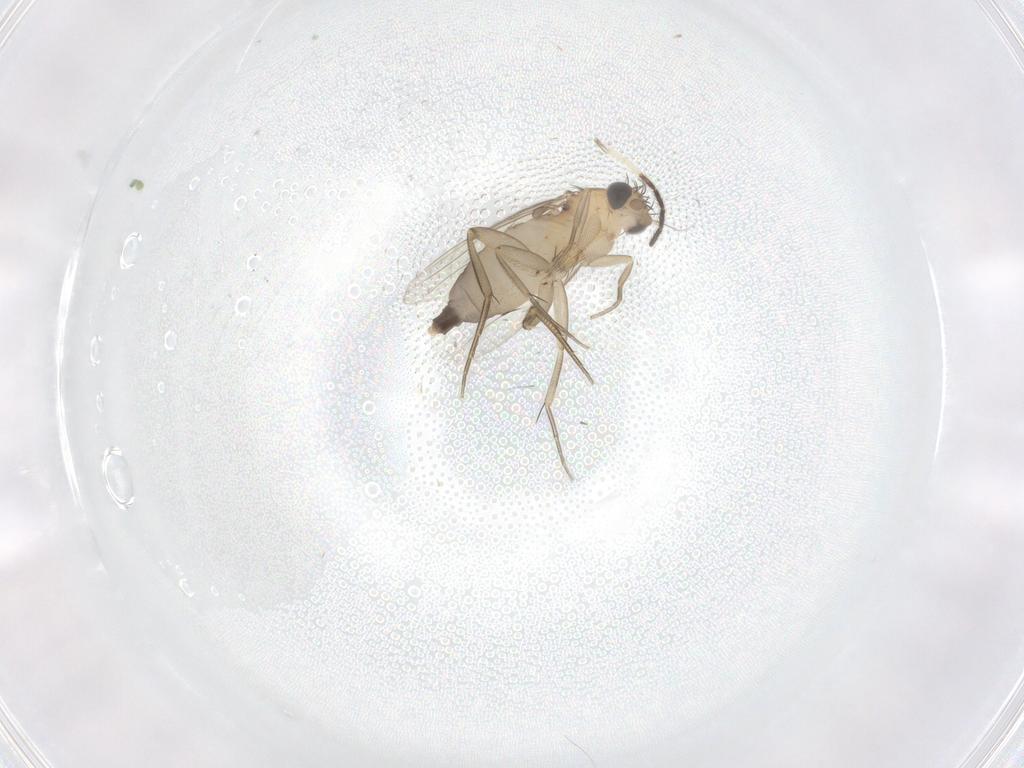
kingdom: Animalia
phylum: Arthropoda
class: Insecta
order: Diptera
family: Phoridae
